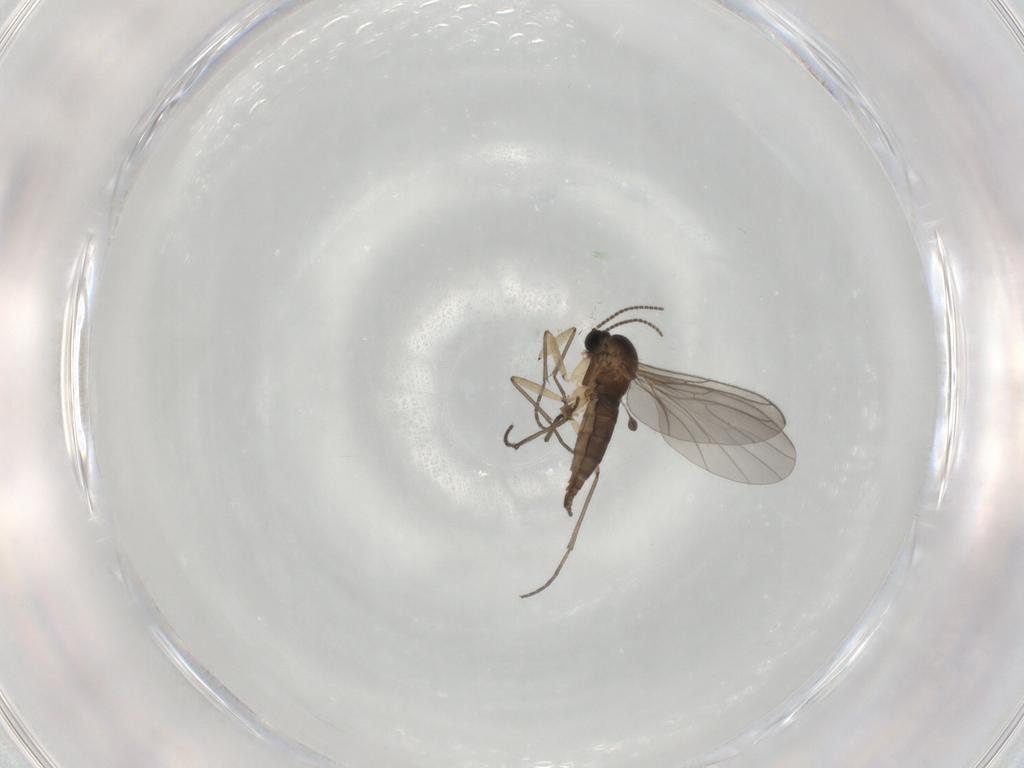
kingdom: Animalia
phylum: Arthropoda
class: Insecta
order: Diptera
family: Sciaridae
